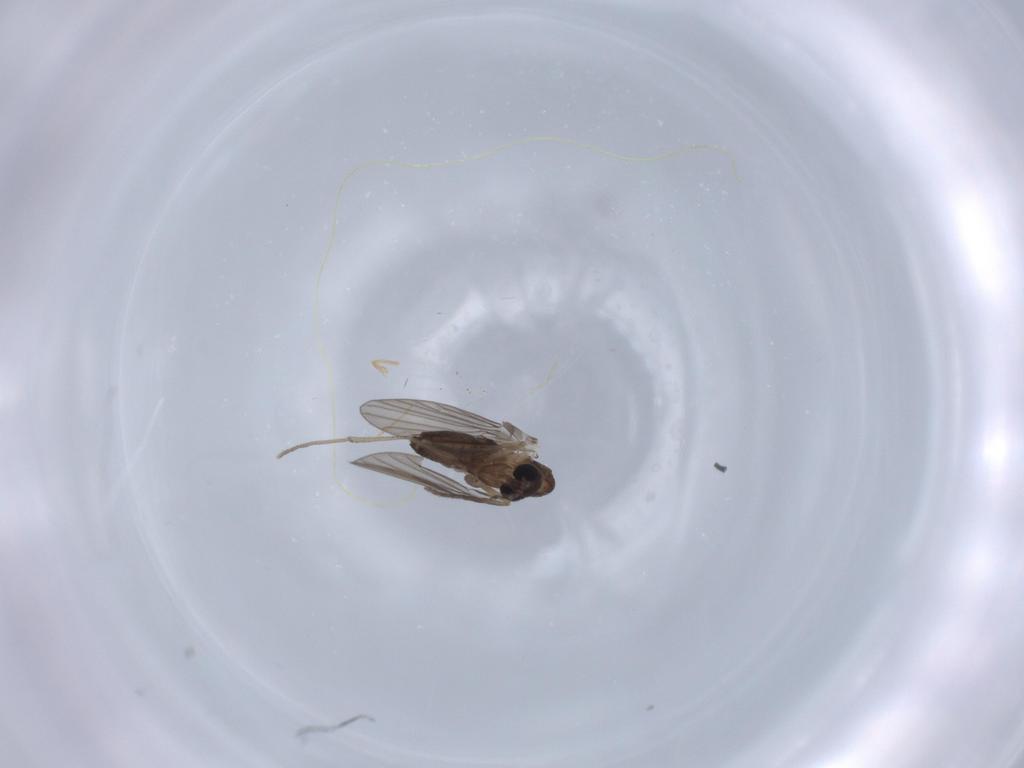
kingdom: Animalia
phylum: Arthropoda
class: Insecta
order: Diptera
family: Psychodidae
